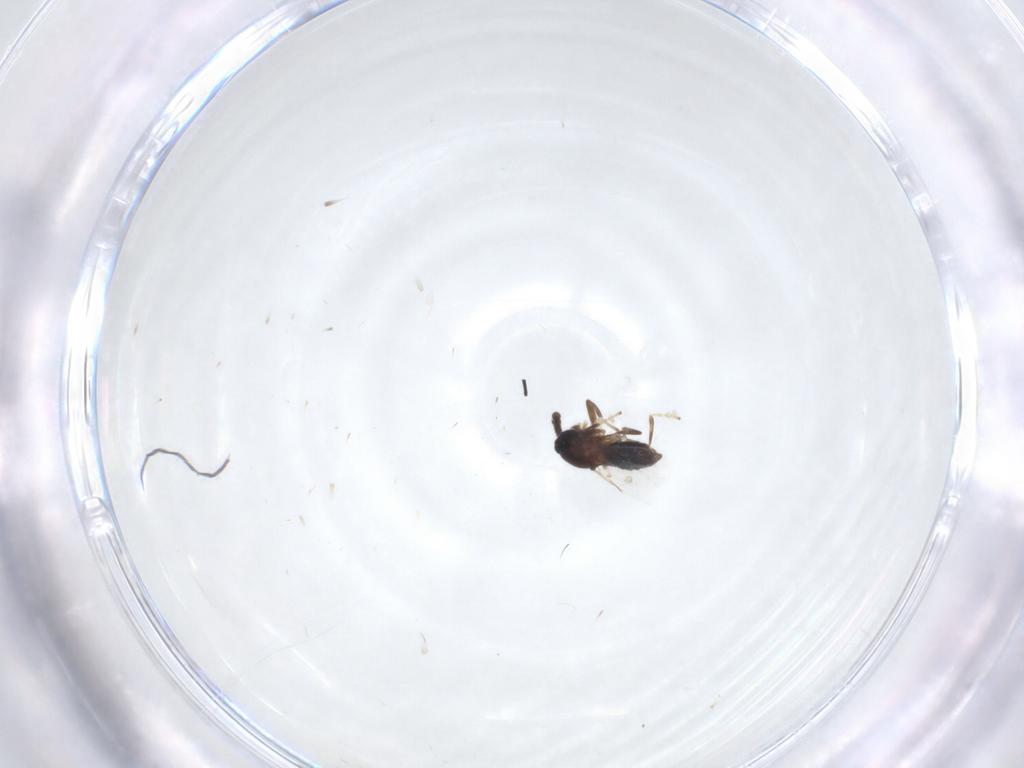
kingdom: Animalia
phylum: Arthropoda
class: Insecta
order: Diptera
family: Scatopsidae
